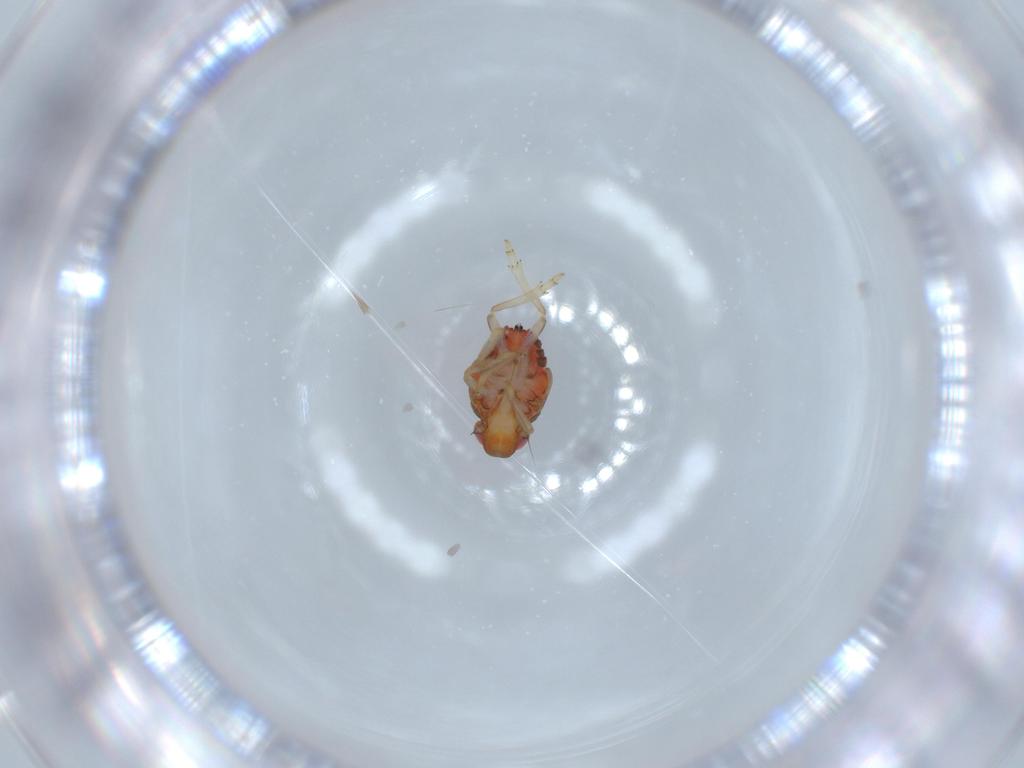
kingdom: Animalia
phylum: Arthropoda
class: Insecta
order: Hemiptera
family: Issidae
